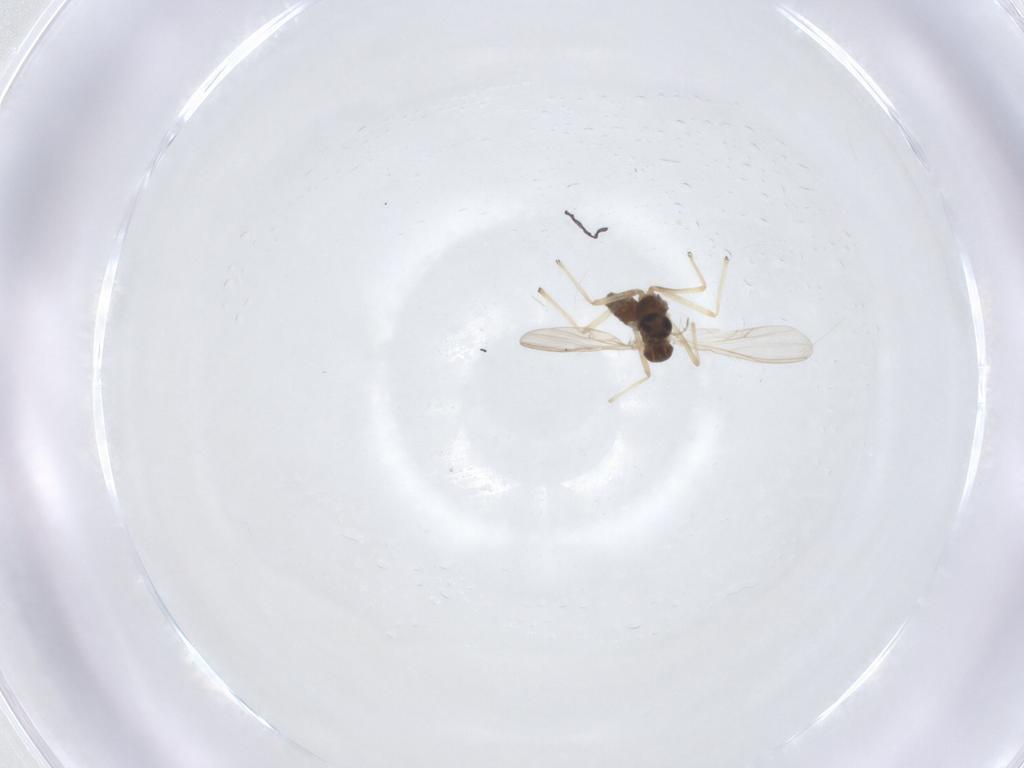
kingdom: Animalia
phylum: Arthropoda
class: Insecta
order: Diptera
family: Chironomidae
